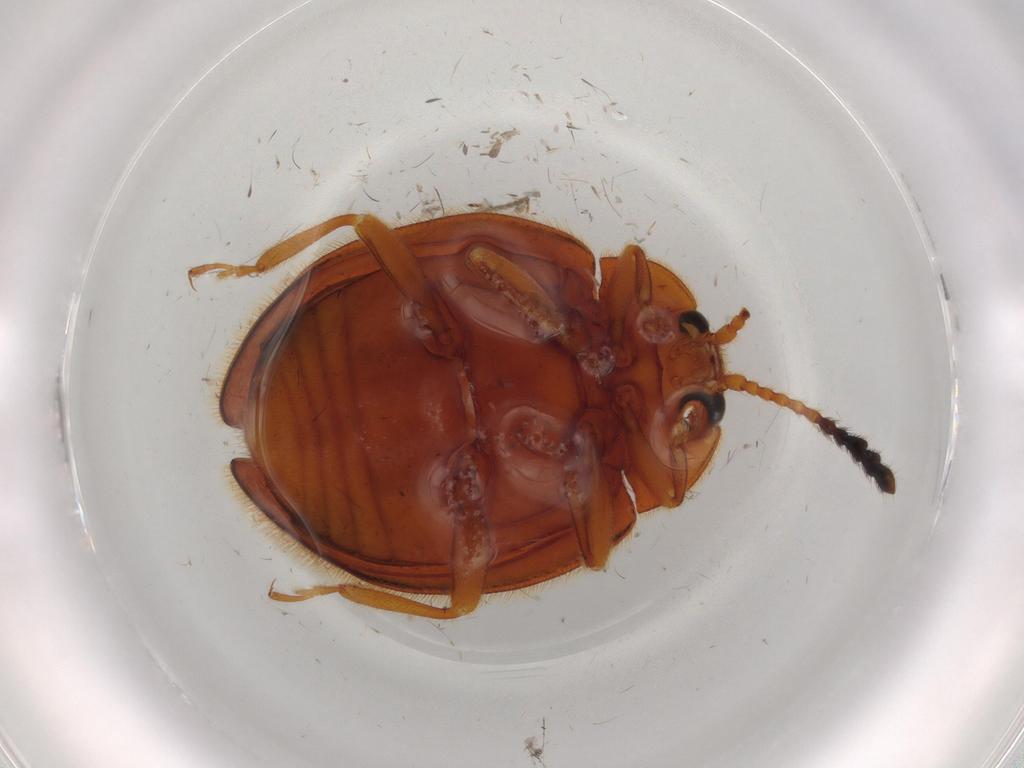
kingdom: Animalia
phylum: Arthropoda
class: Insecta
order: Coleoptera
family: Endomychidae
